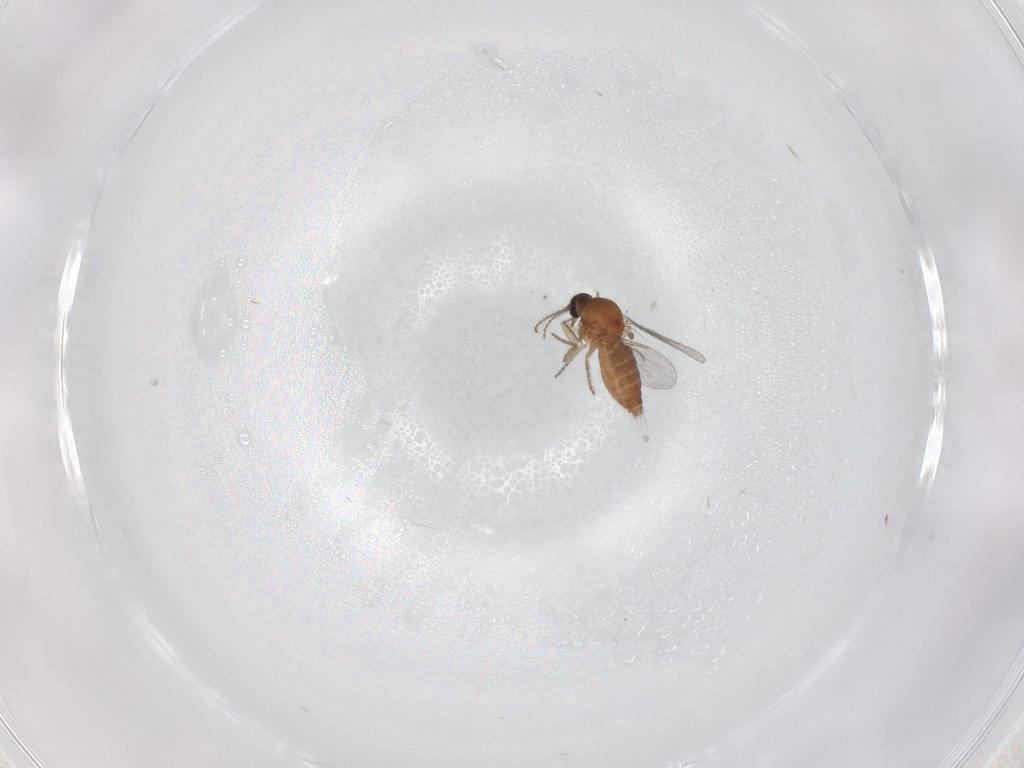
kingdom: Animalia
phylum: Arthropoda
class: Insecta
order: Diptera
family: Ceratopogonidae
